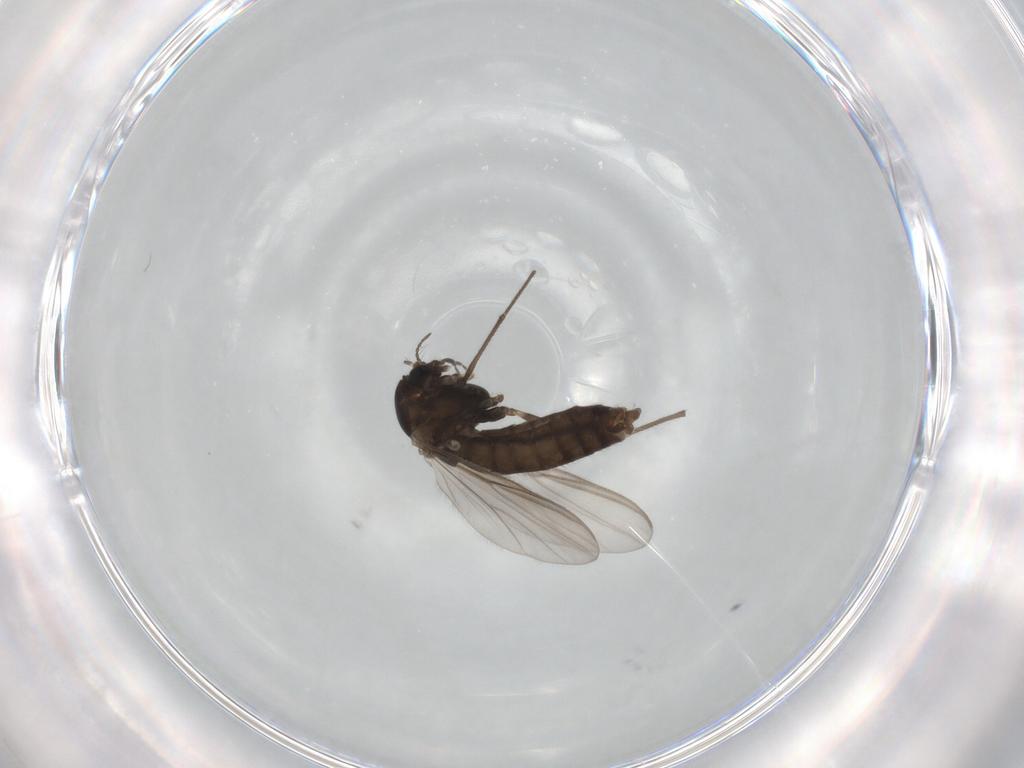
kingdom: Animalia
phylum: Arthropoda
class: Insecta
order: Diptera
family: Chironomidae
